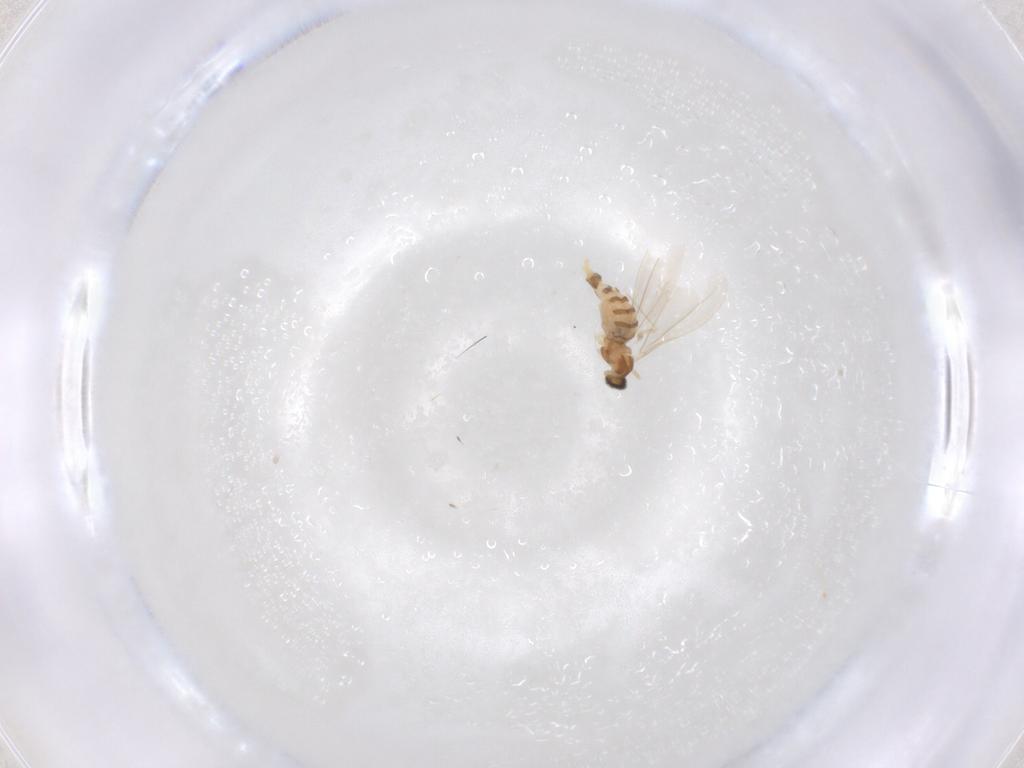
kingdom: Animalia
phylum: Arthropoda
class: Insecta
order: Diptera
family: Cecidomyiidae
